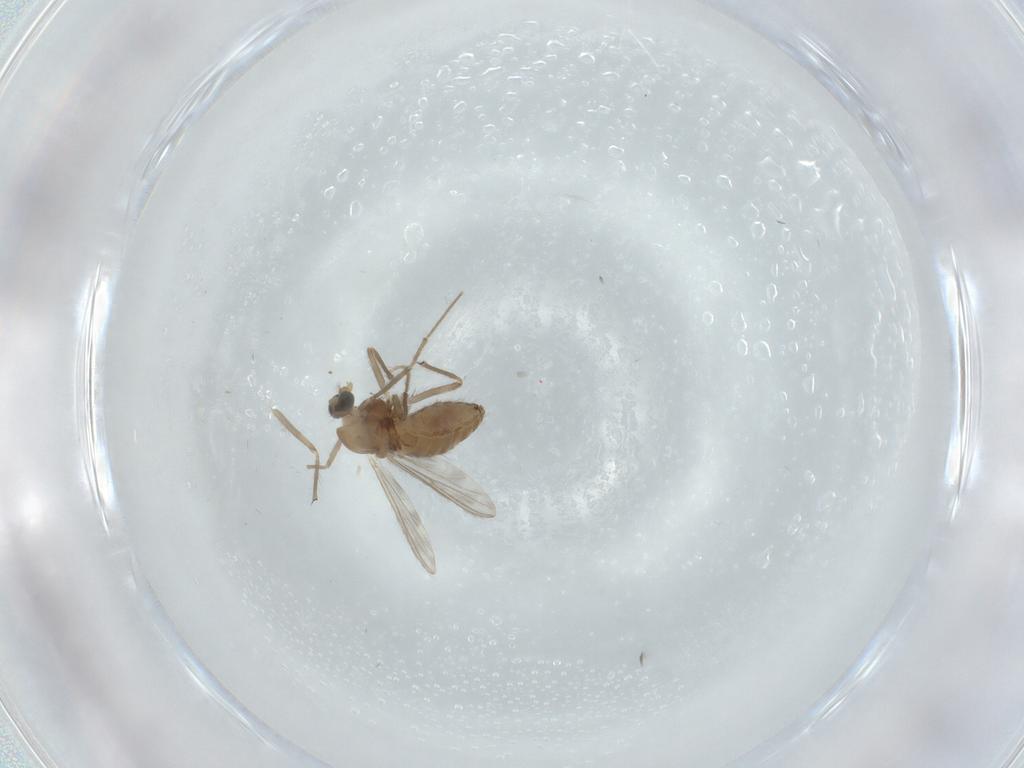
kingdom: Animalia
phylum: Arthropoda
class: Insecta
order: Diptera
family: Chironomidae
